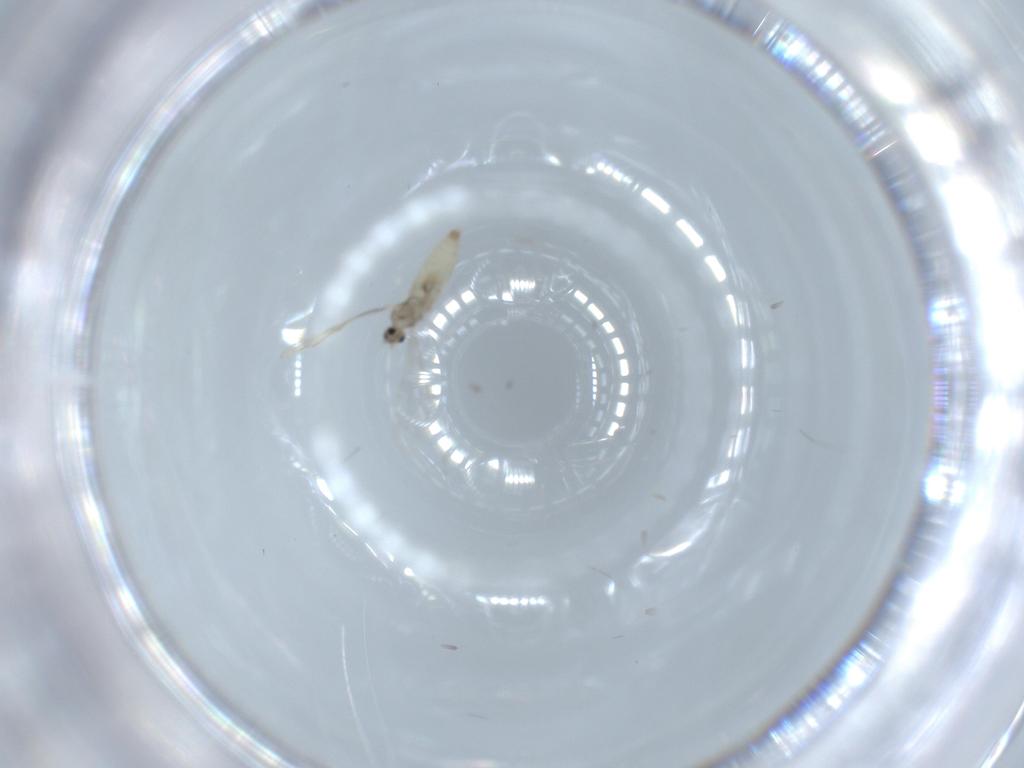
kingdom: Animalia
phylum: Arthropoda
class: Insecta
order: Diptera
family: Cecidomyiidae
